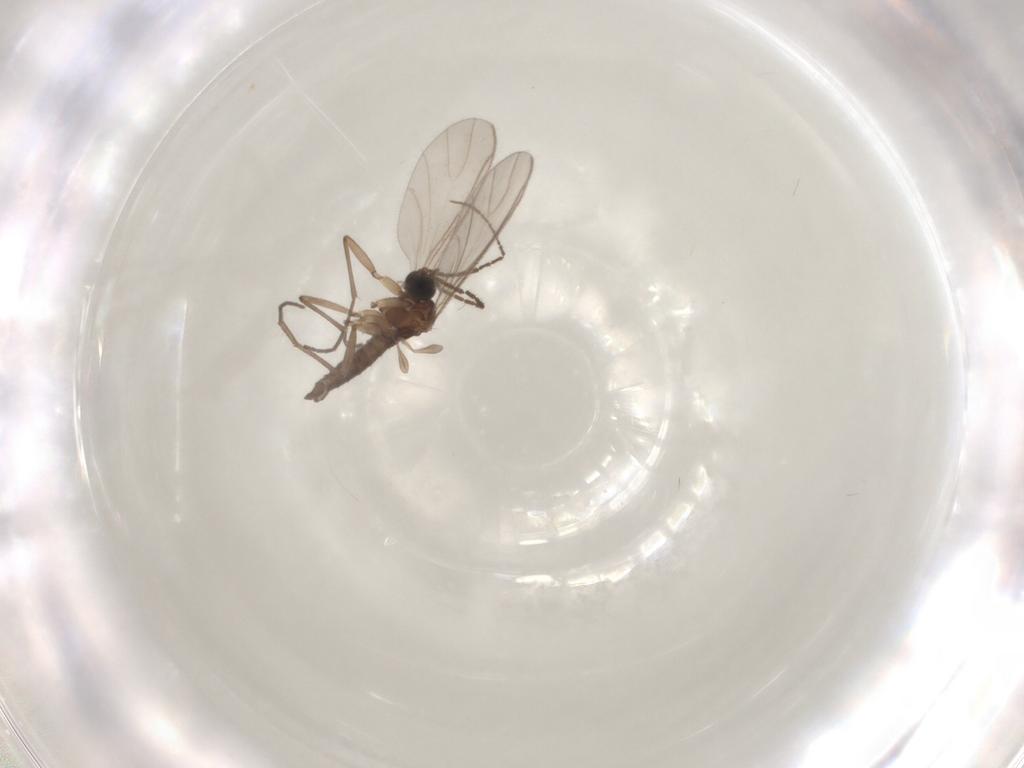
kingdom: Animalia
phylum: Arthropoda
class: Insecta
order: Diptera
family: Sciaridae
